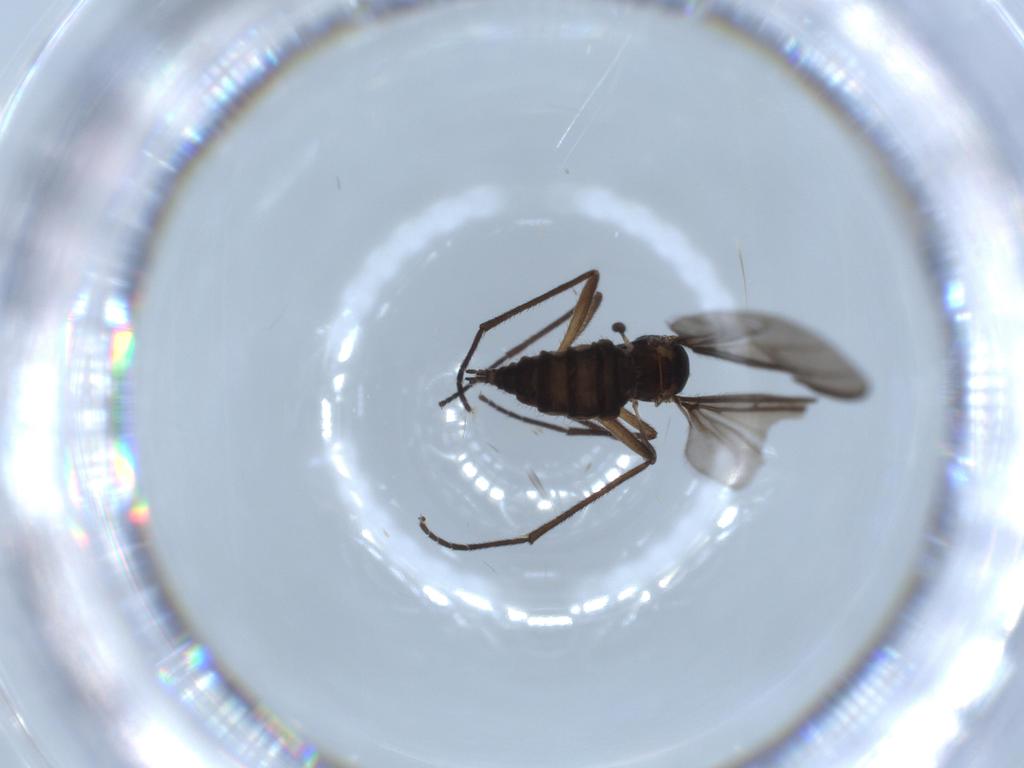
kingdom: Animalia
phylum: Arthropoda
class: Insecta
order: Diptera
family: Sciaridae
